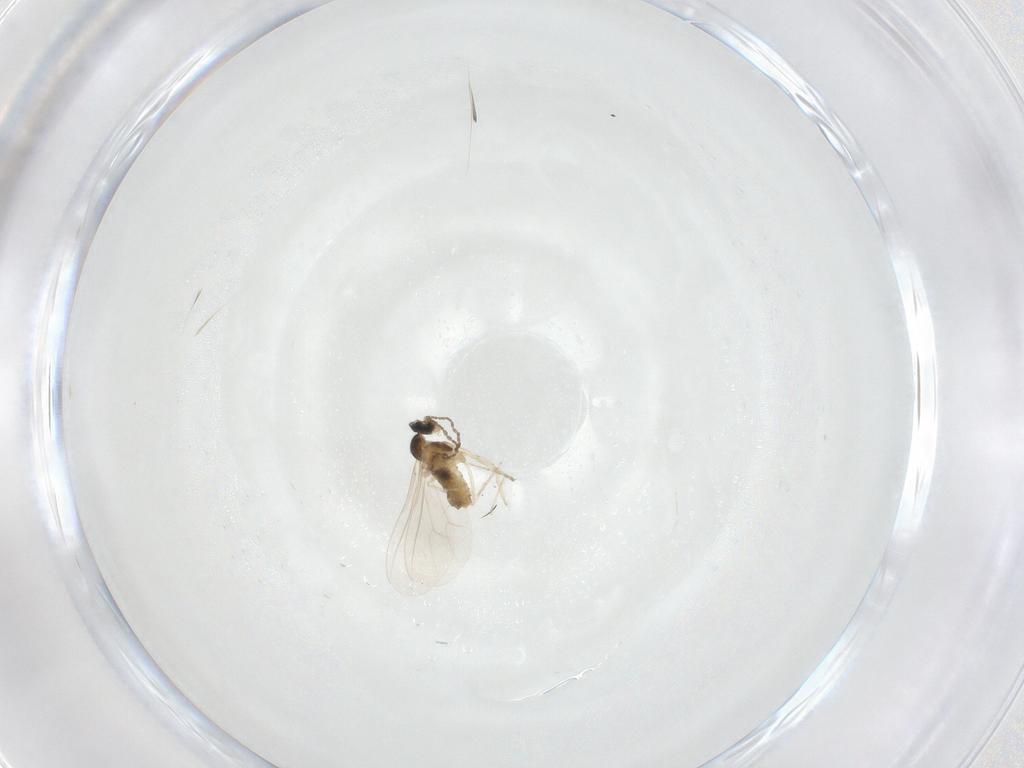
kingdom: Animalia
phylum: Arthropoda
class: Insecta
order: Diptera
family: Cecidomyiidae
